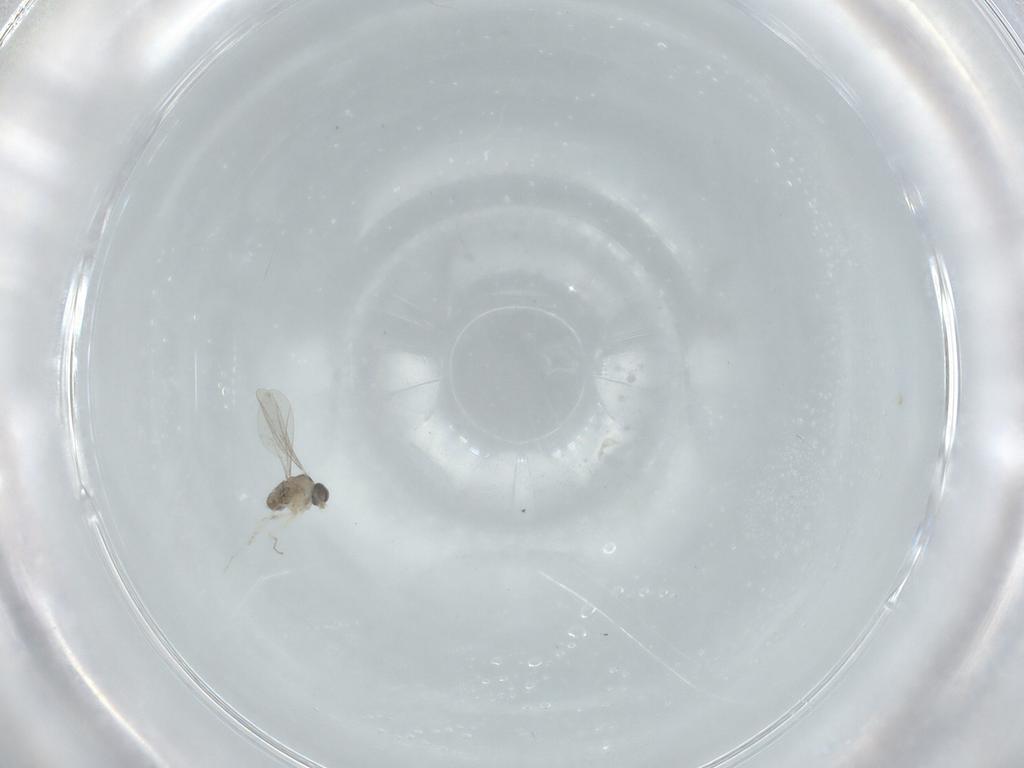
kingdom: Animalia
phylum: Arthropoda
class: Insecta
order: Diptera
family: Cecidomyiidae
